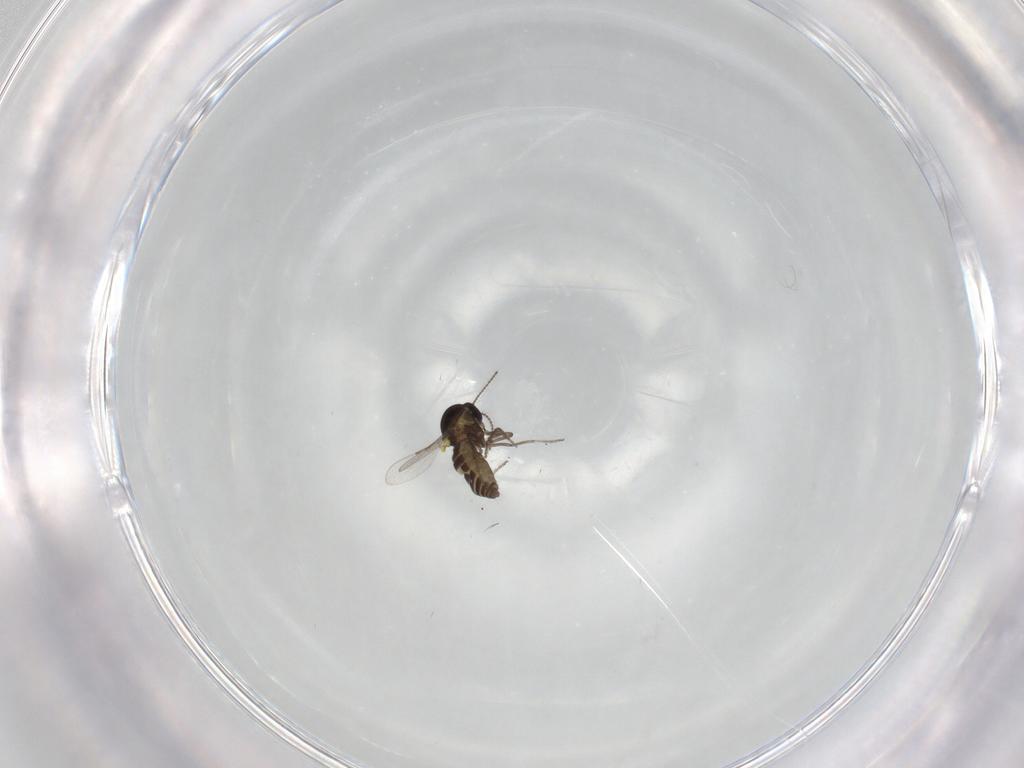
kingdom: Animalia
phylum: Arthropoda
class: Insecta
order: Diptera
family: Ceratopogonidae
